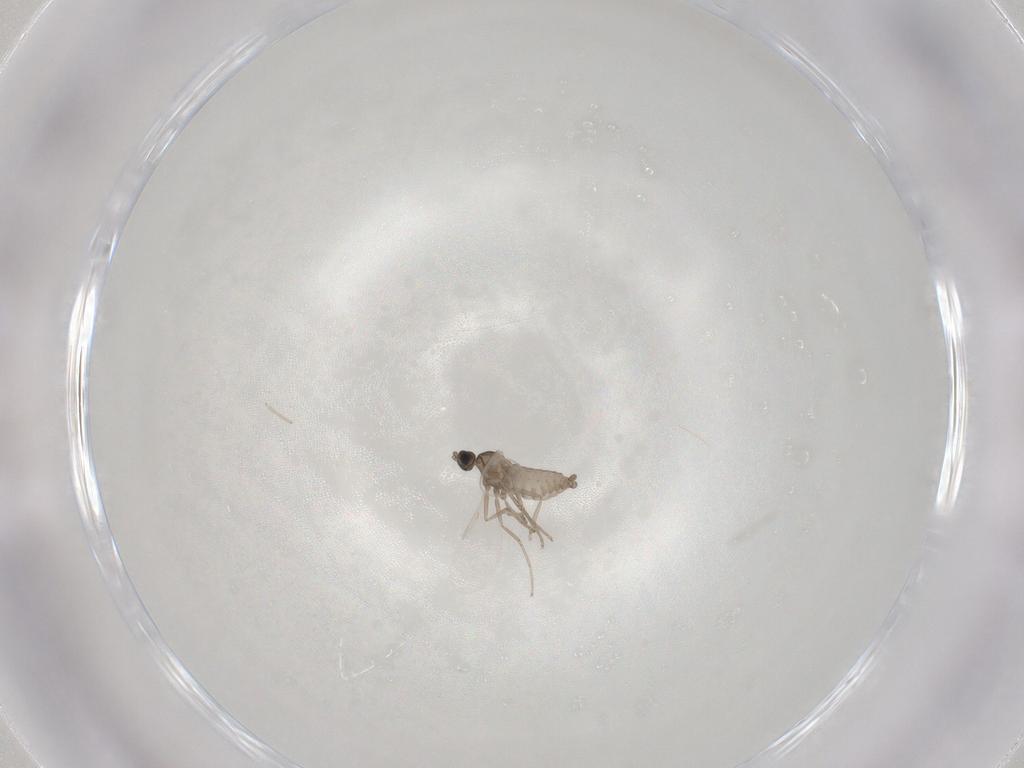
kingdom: Animalia
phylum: Arthropoda
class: Insecta
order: Diptera
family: Cecidomyiidae
